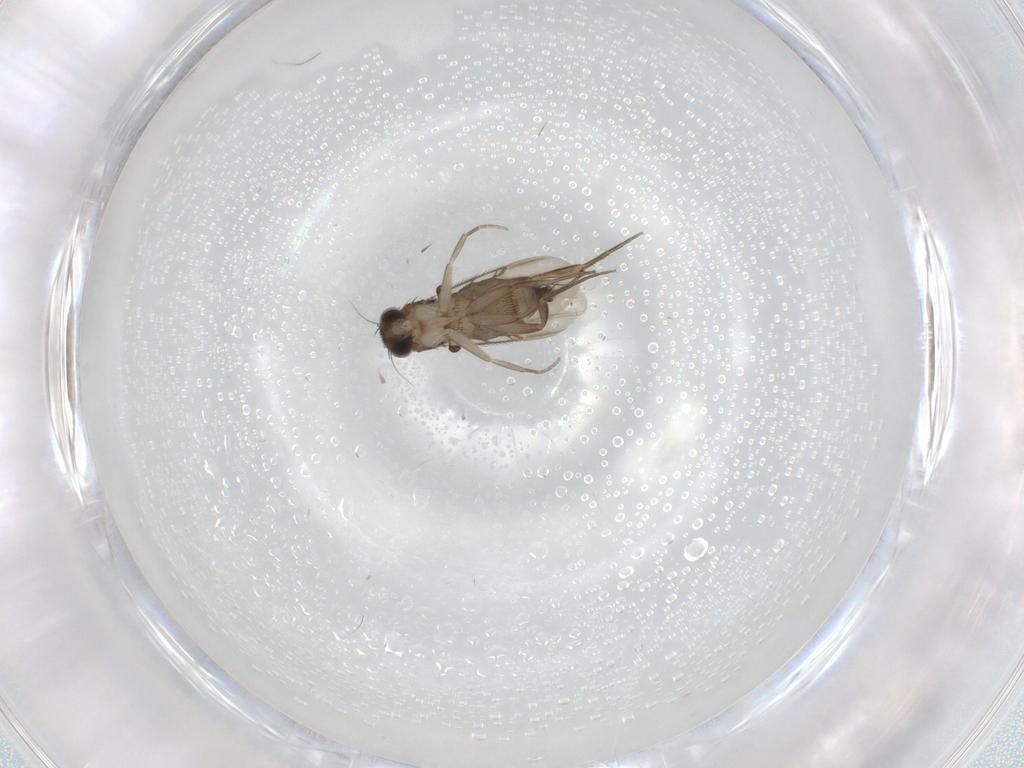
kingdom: Animalia
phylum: Arthropoda
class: Insecta
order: Diptera
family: Phoridae
